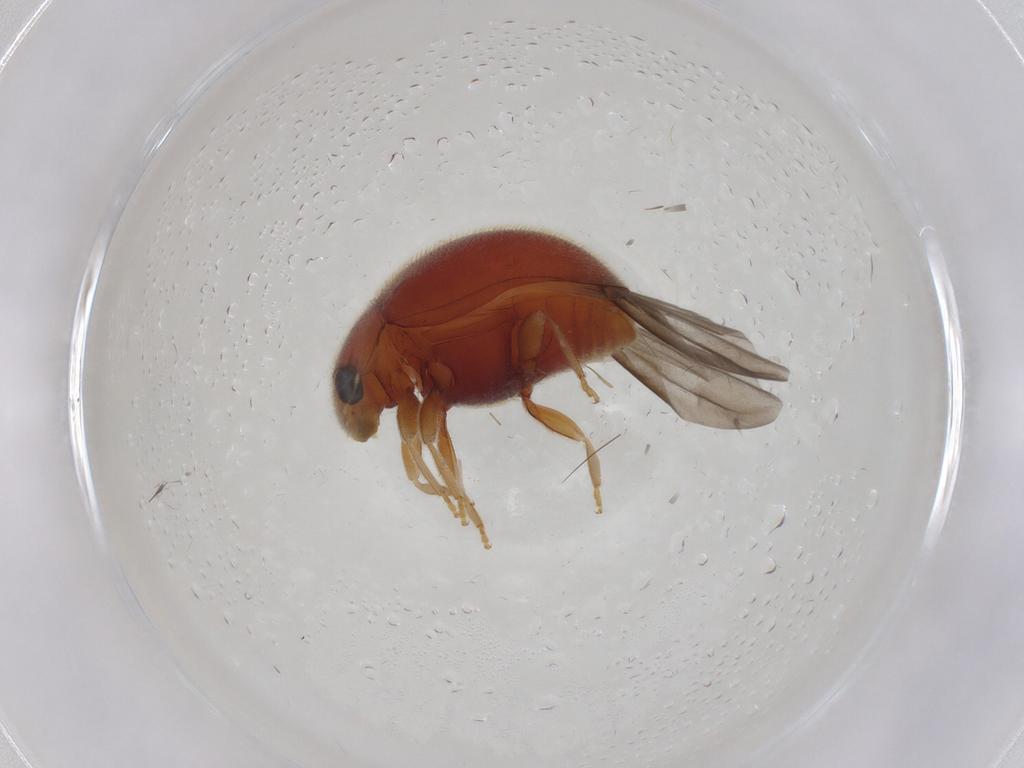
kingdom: Animalia
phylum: Arthropoda
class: Insecta
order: Coleoptera
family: Coccinellidae
